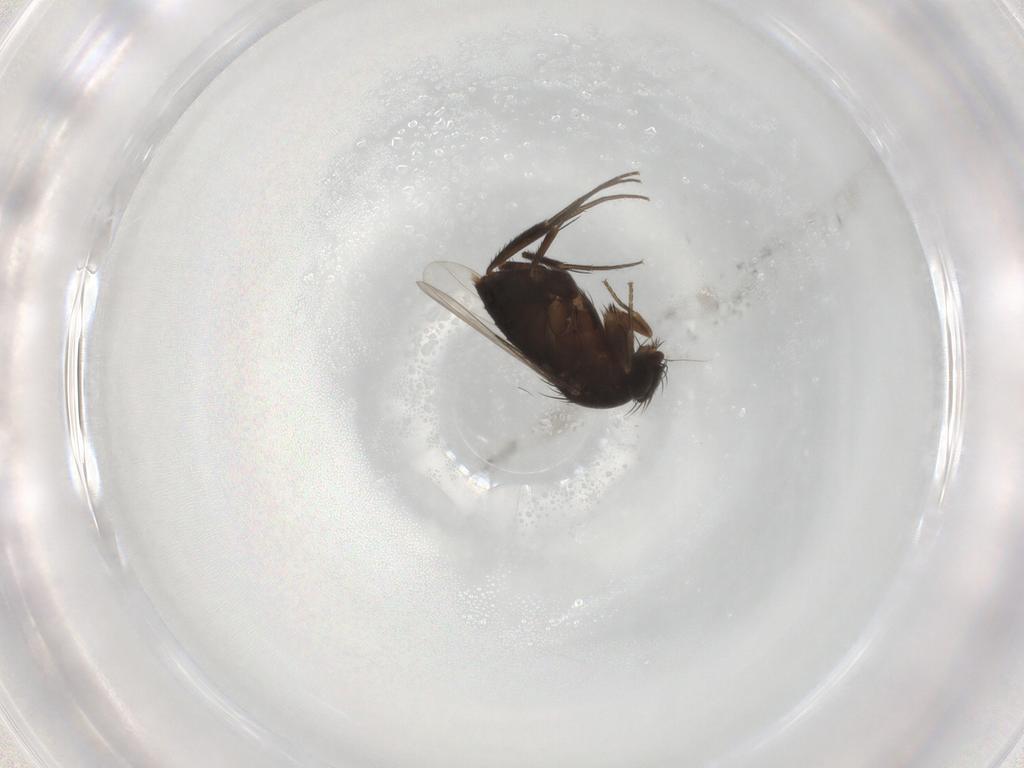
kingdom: Animalia
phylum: Arthropoda
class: Insecta
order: Diptera
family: Phoridae
